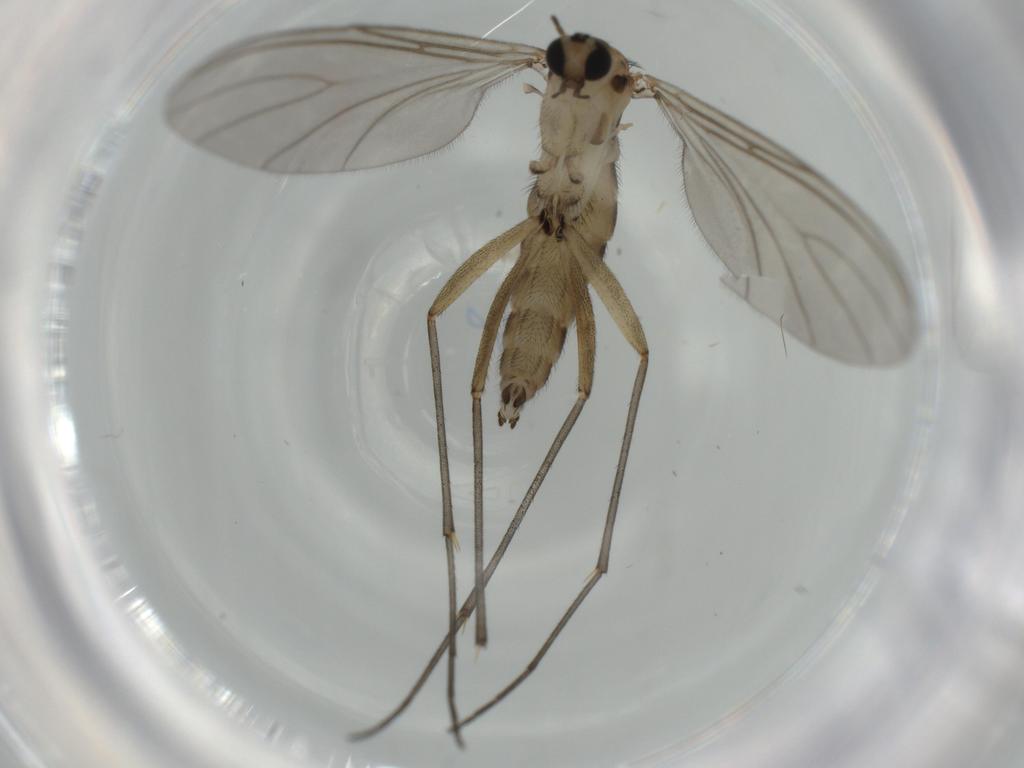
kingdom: Animalia
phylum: Arthropoda
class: Insecta
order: Diptera
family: Sciaridae
